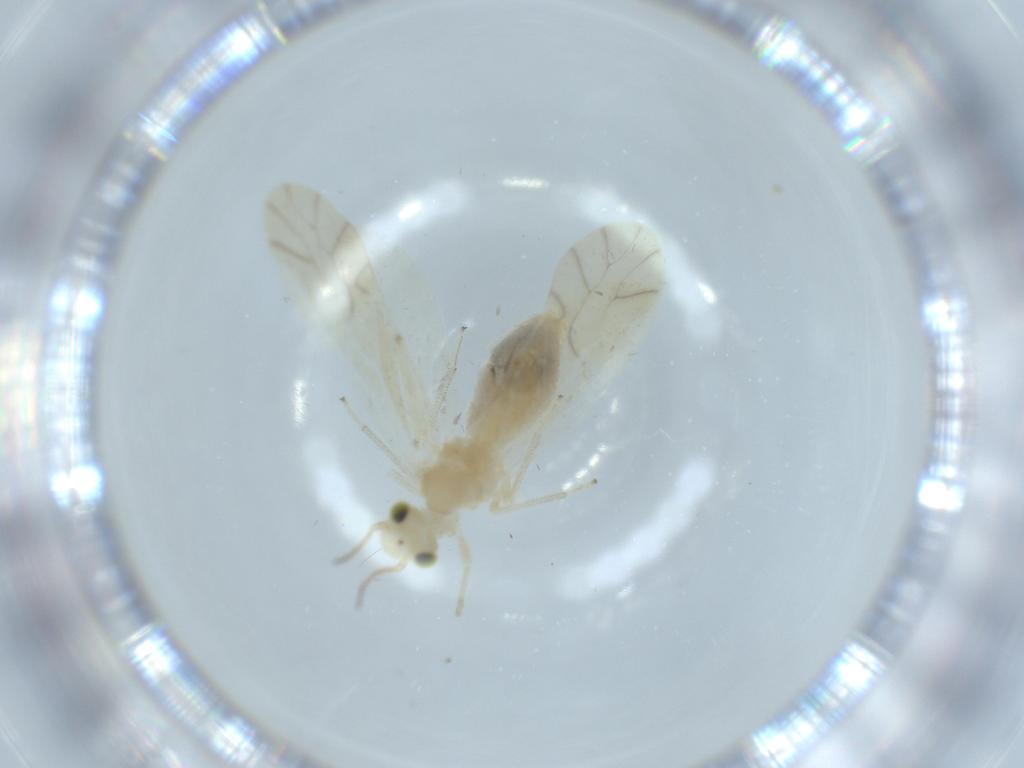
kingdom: Animalia
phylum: Arthropoda
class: Insecta
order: Psocodea
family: Caeciliusidae
